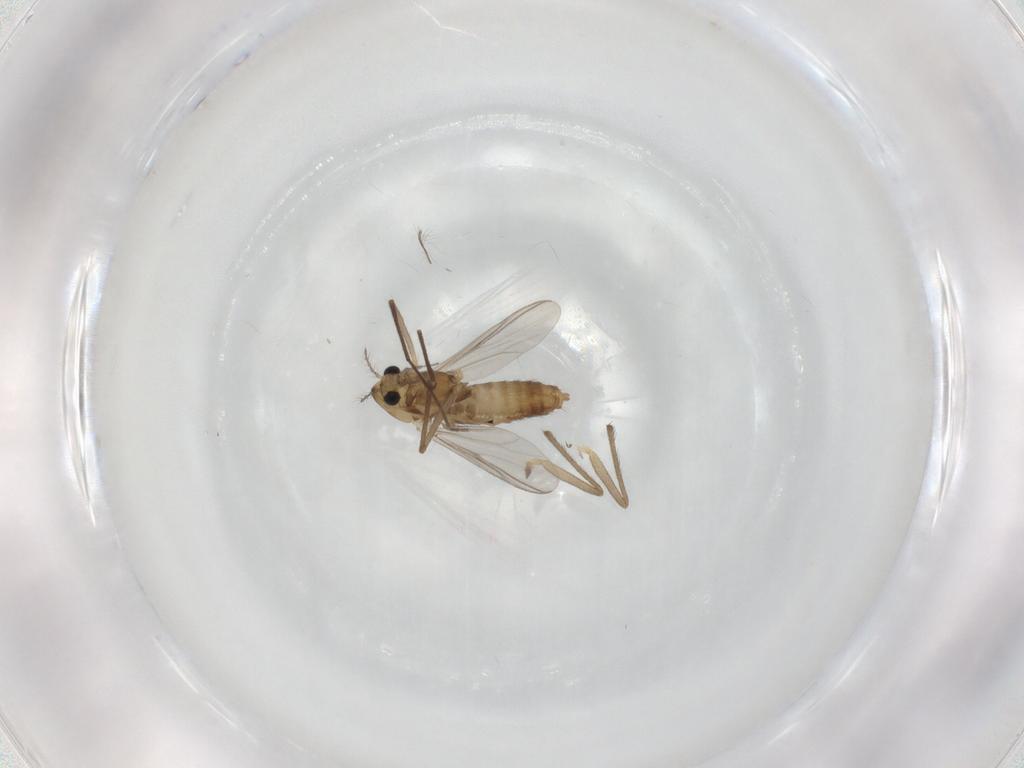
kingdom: Animalia
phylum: Arthropoda
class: Insecta
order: Diptera
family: Chironomidae
